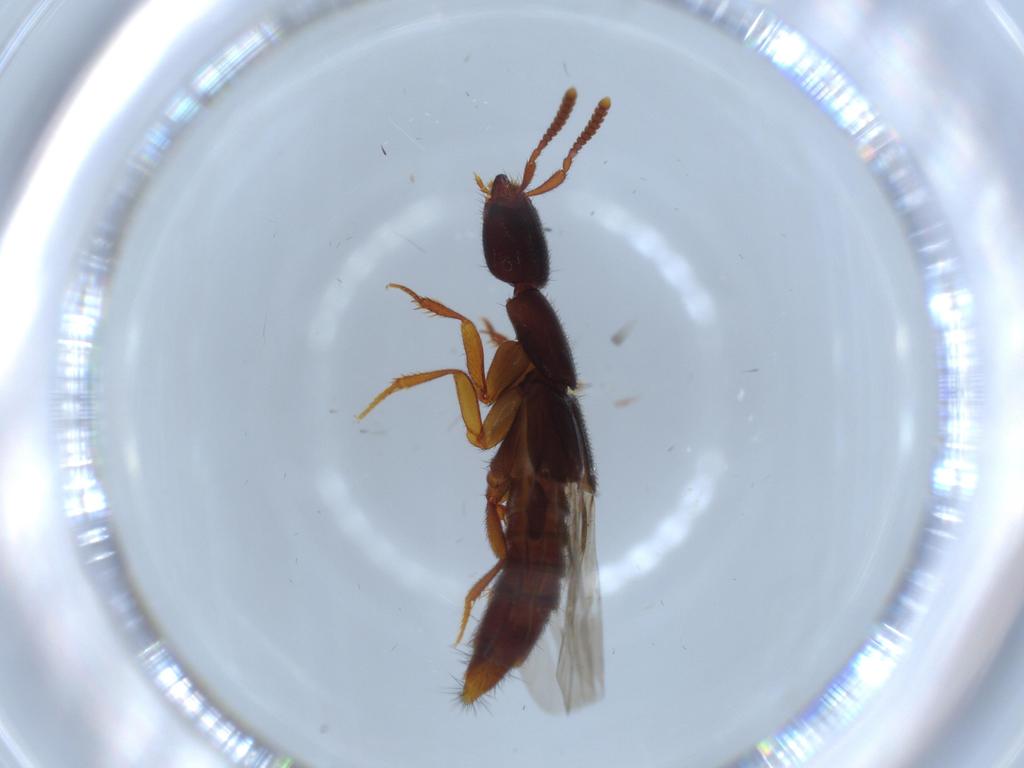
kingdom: Animalia
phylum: Arthropoda
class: Insecta
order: Coleoptera
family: Staphylinidae
